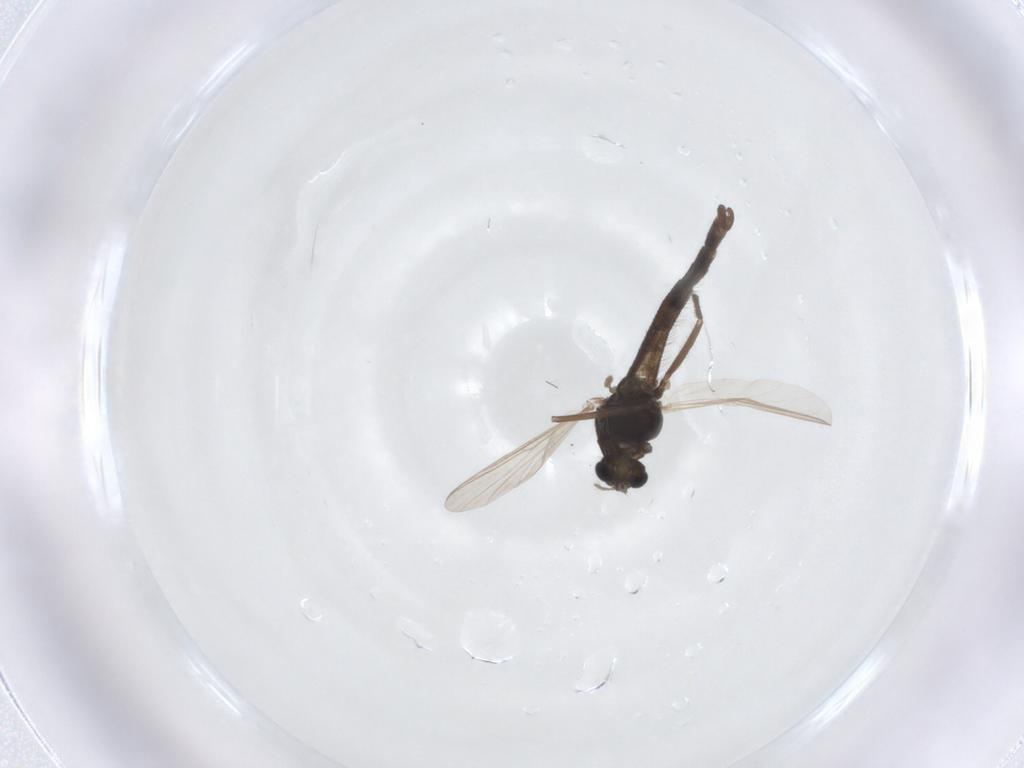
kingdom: Animalia
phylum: Arthropoda
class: Insecta
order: Diptera
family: Chironomidae
